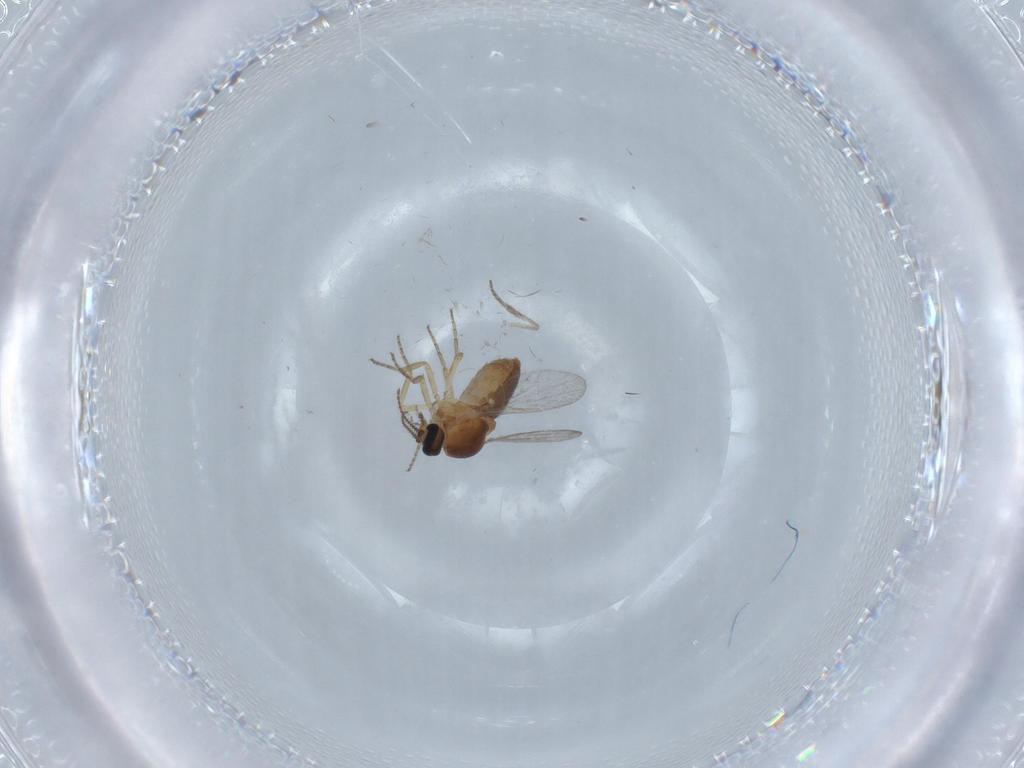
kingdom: Animalia
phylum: Arthropoda
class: Insecta
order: Diptera
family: Ceratopogonidae
